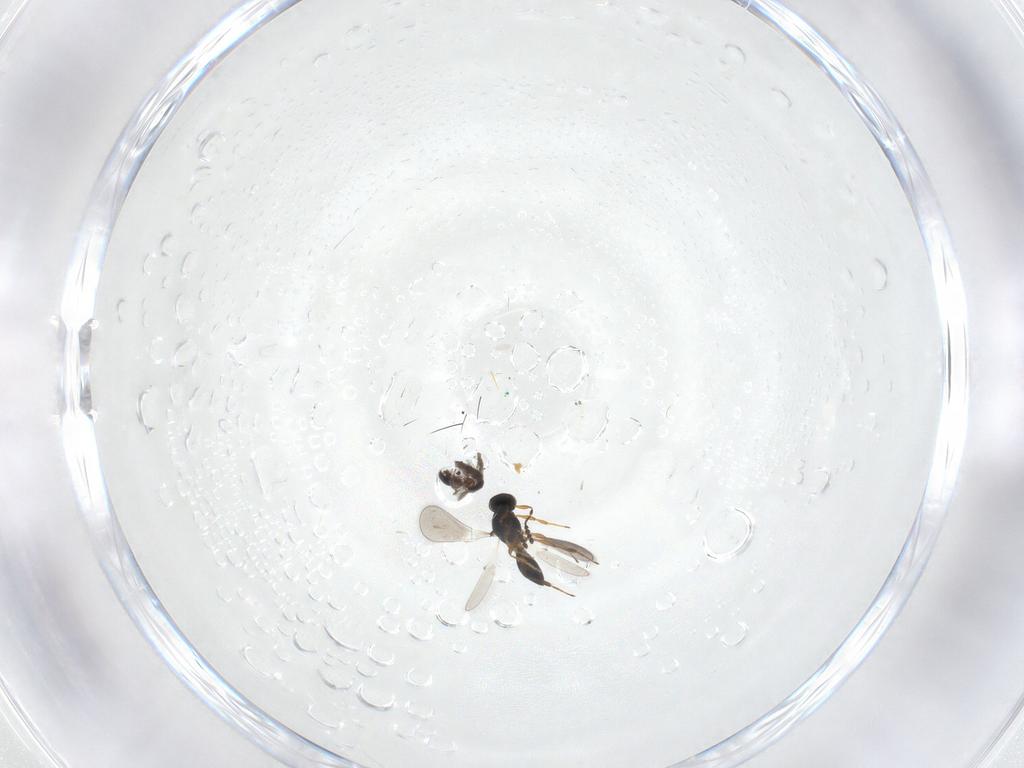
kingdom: Animalia
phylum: Arthropoda
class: Insecta
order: Hymenoptera
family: Platygastridae
